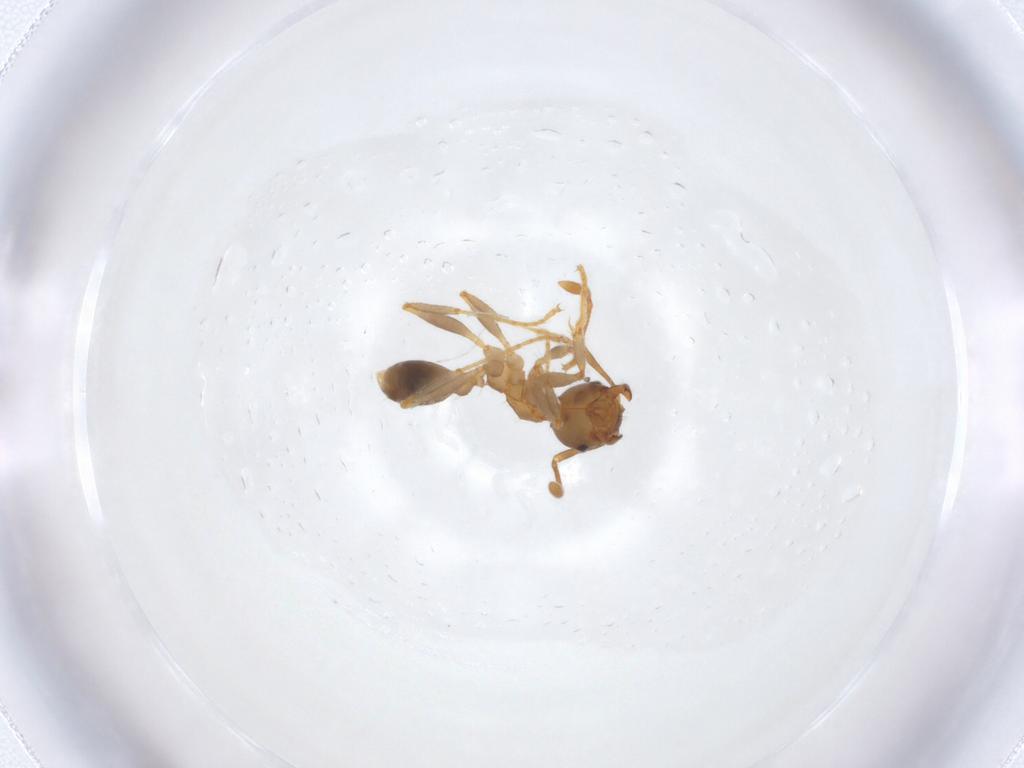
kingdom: Animalia
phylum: Arthropoda
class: Insecta
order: Hymenoptera
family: Formicidae
